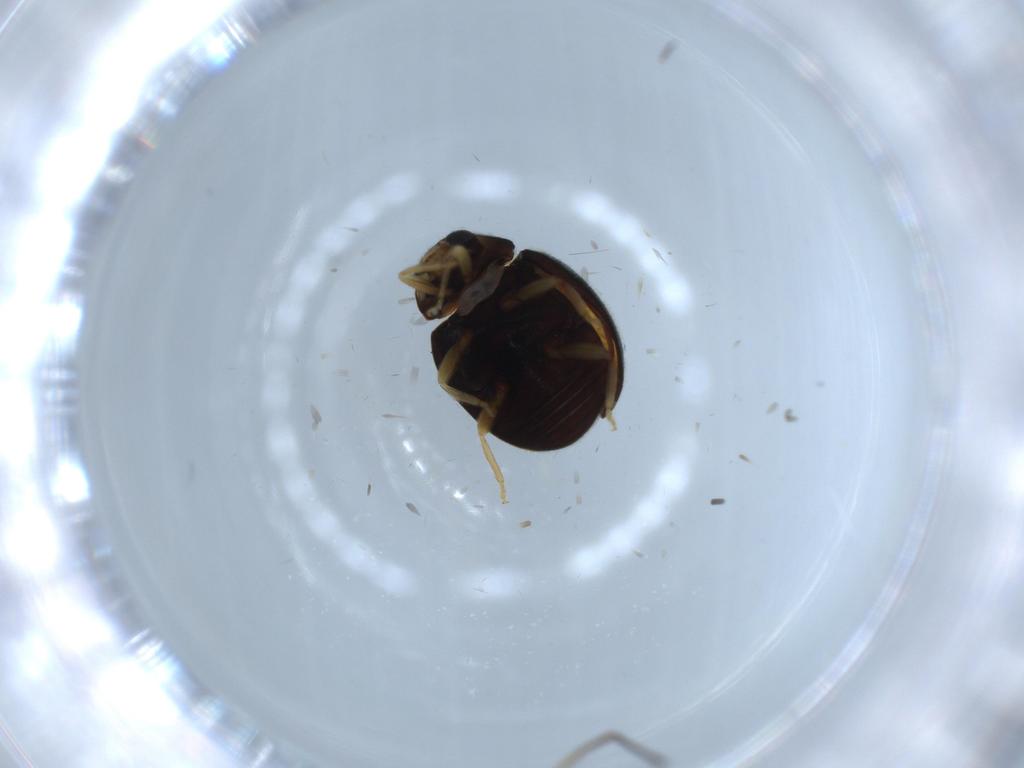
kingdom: Animalia
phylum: Arthropoda
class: Insecta
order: Coleoptera
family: Coccinellidae
